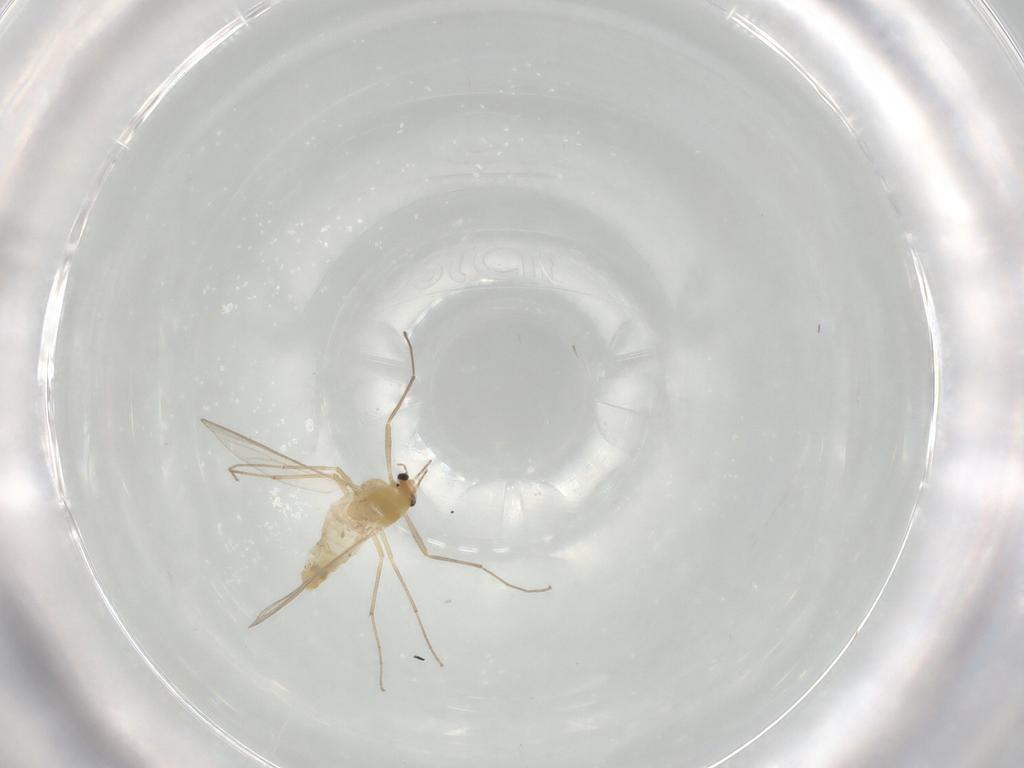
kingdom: Animalia
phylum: Arthropoda
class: Insecta
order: Diptera
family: Chironomidae
